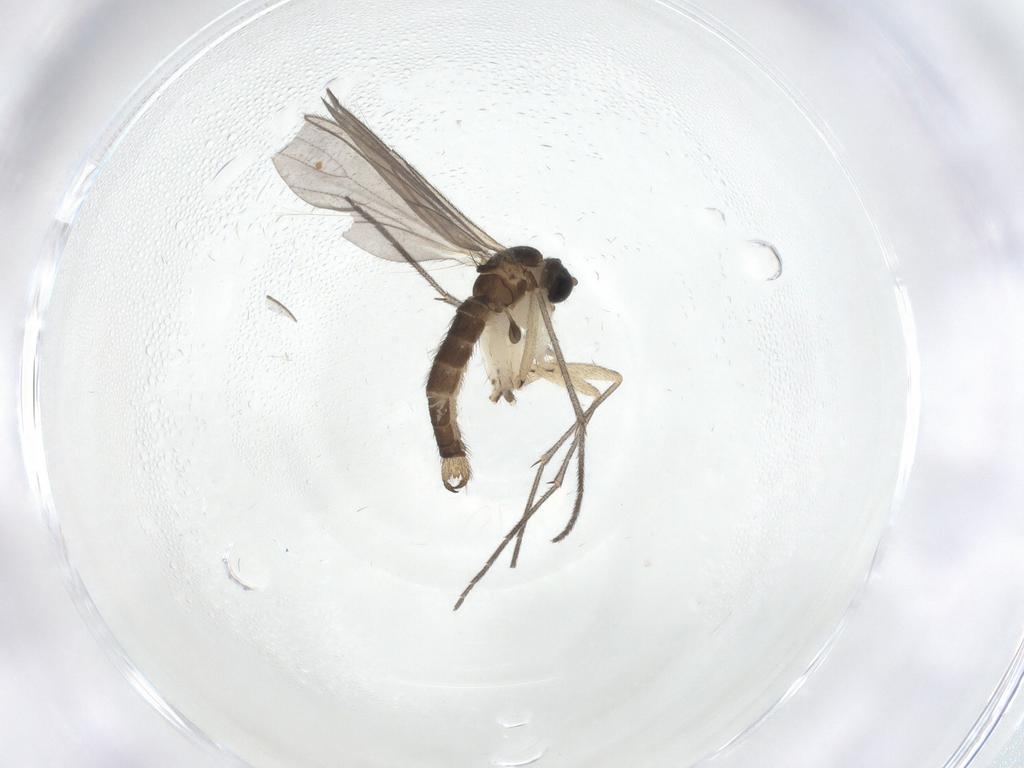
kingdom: Animalia
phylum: Arthropoda
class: Insecta
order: Diptera
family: Sciaridae
